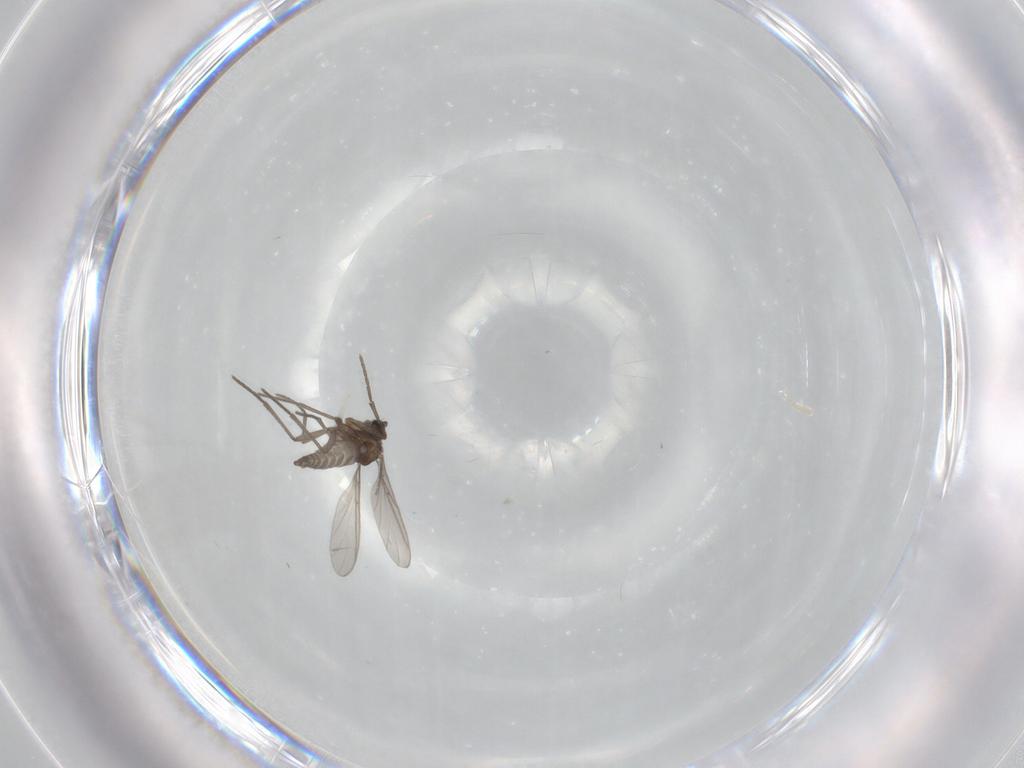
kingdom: Animalia
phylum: Arthropoda
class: Insecta
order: Diptera
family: Sciaridae
